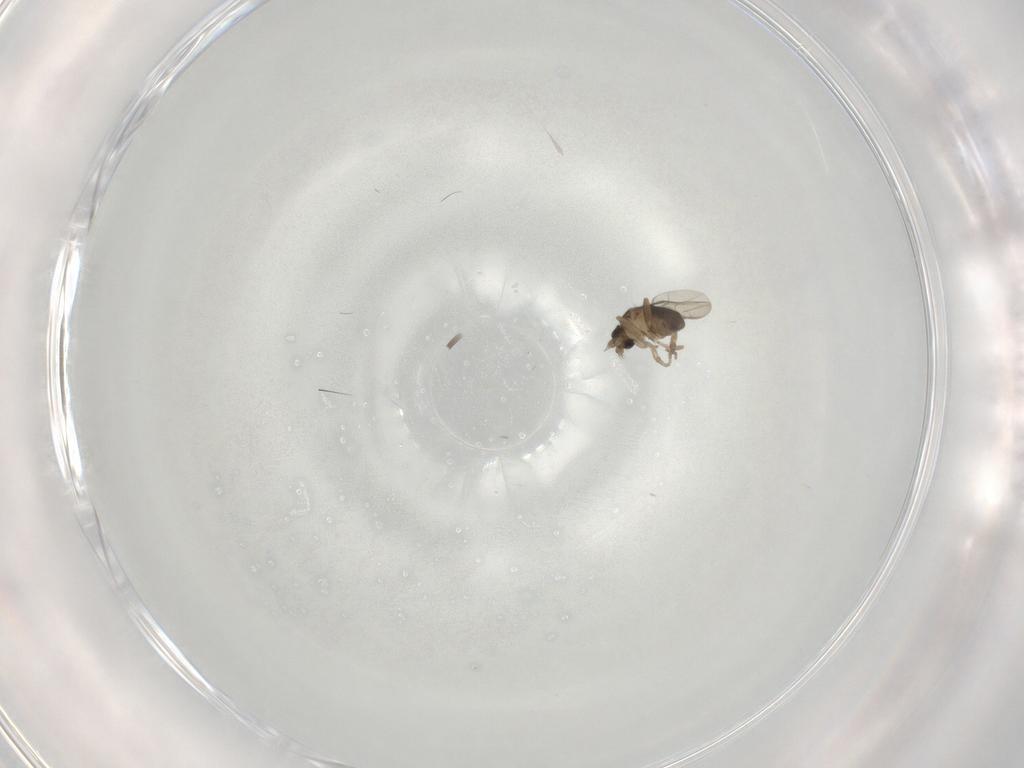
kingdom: Animalia
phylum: Arthropoda
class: Insecta
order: Diptera
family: Phoridae
